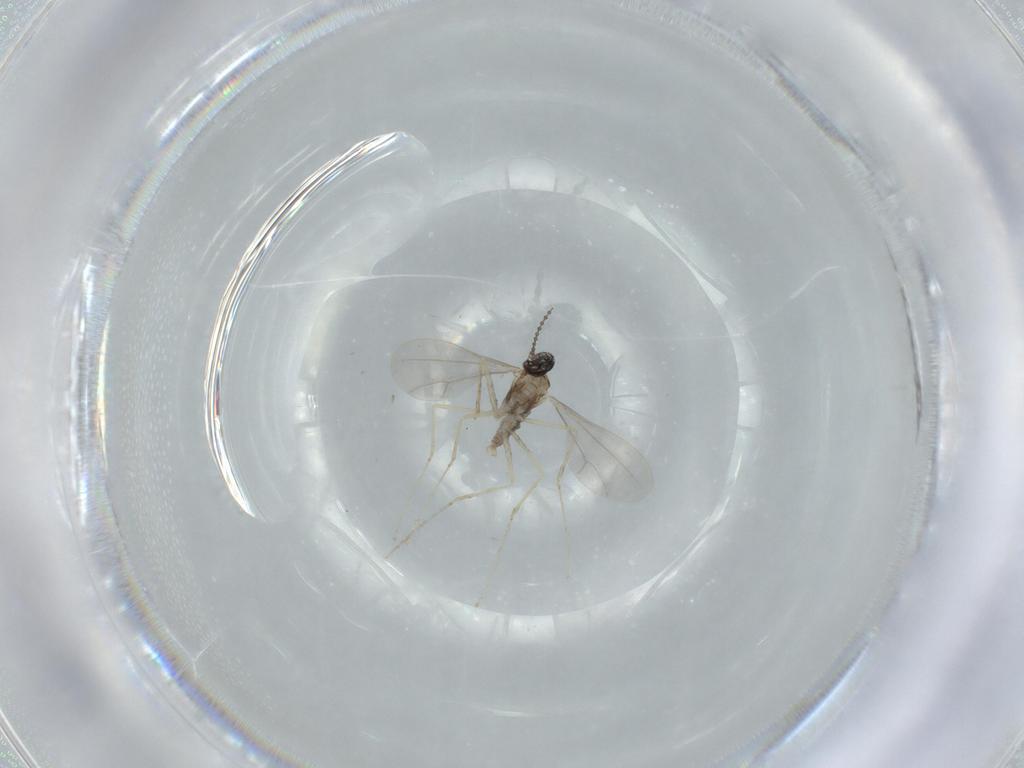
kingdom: Animalia
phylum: Arthropoda
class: Insecta
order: Diptera
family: Cecidomyiidae
